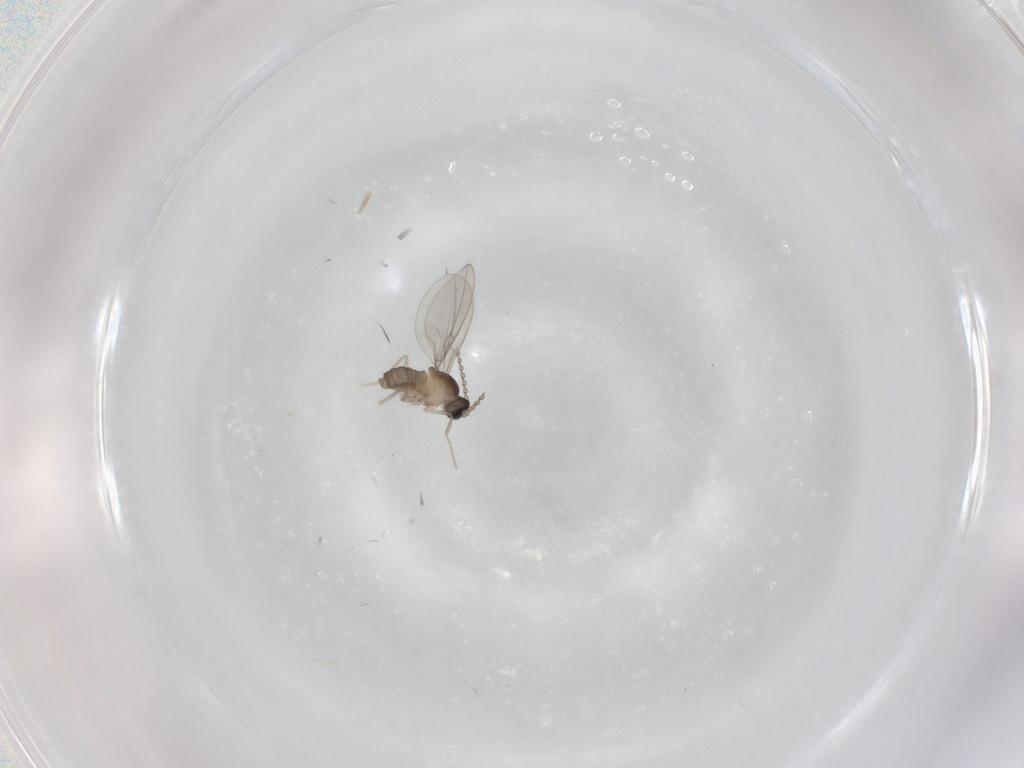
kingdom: Animalia
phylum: Arthropoda
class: Insecta
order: Diptera
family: Cecidomyiidae
